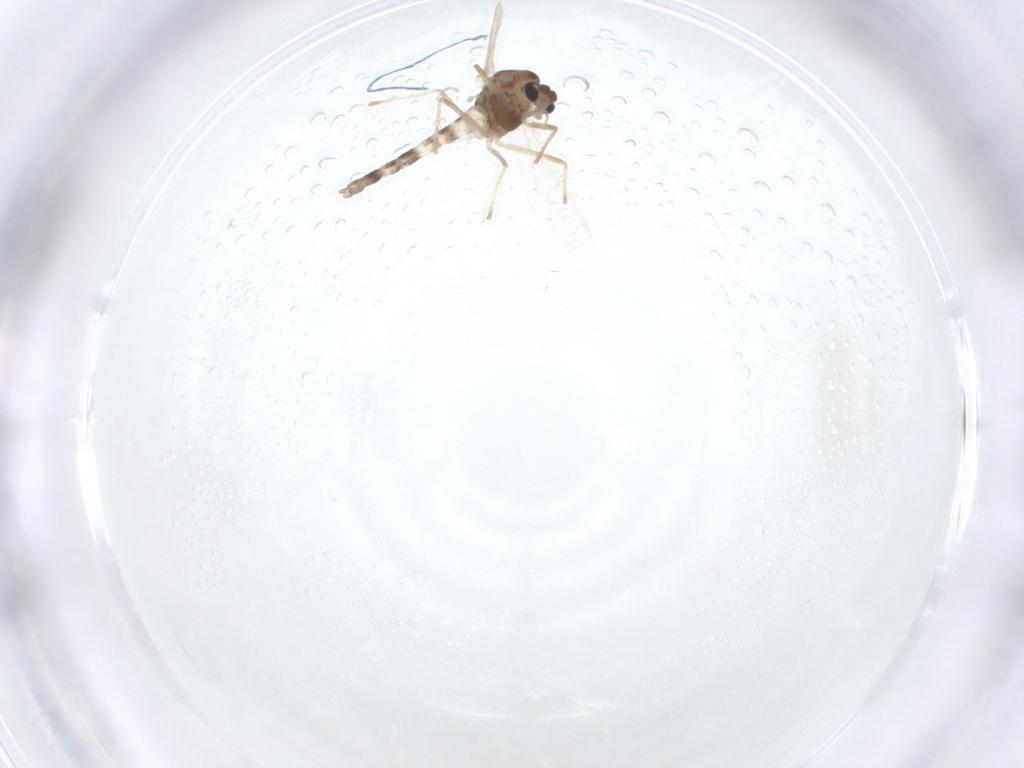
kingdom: Animalia
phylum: Arthropoda
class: Insecta
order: Diptera
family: Chironomidae
